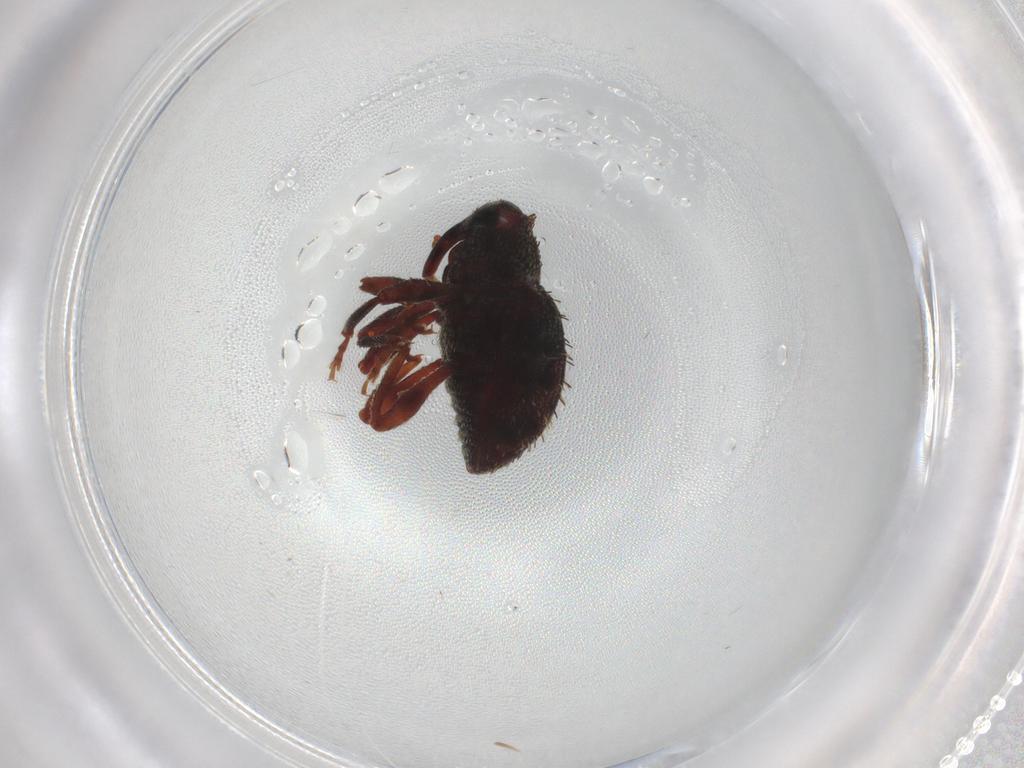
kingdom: Animalia
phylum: Arthropoda
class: Insecta
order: Coleoptera
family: Curculionidae
